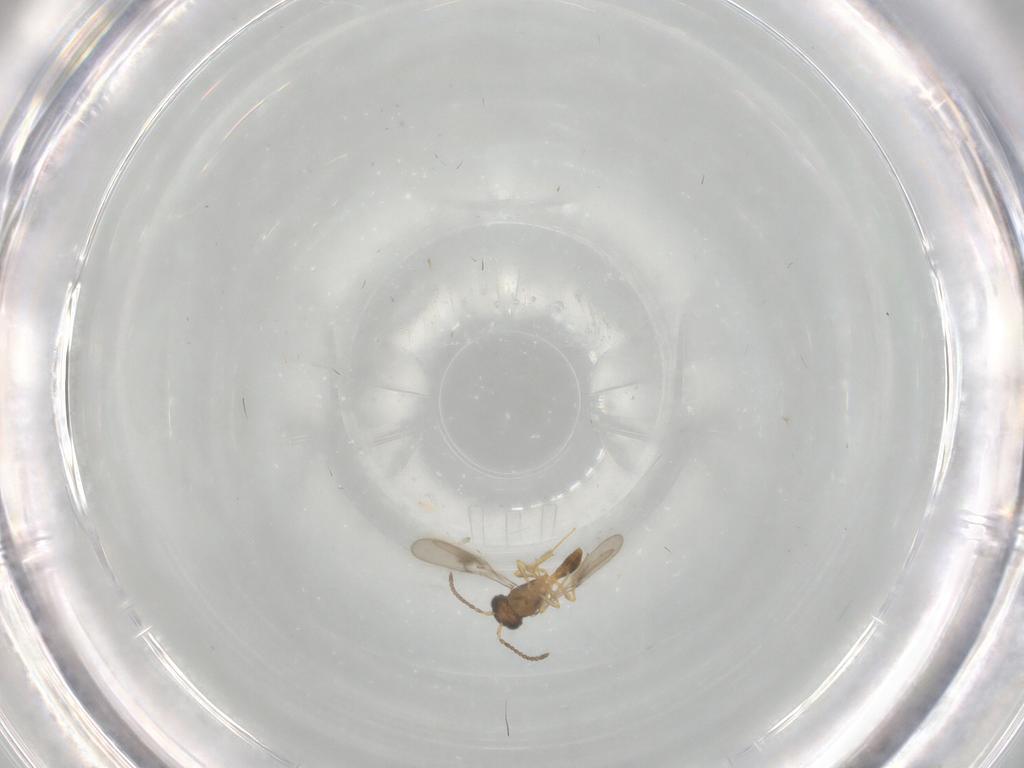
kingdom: Animalia
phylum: Arthropoda
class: Insecta
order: Hymenoptera
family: Scelionidae
